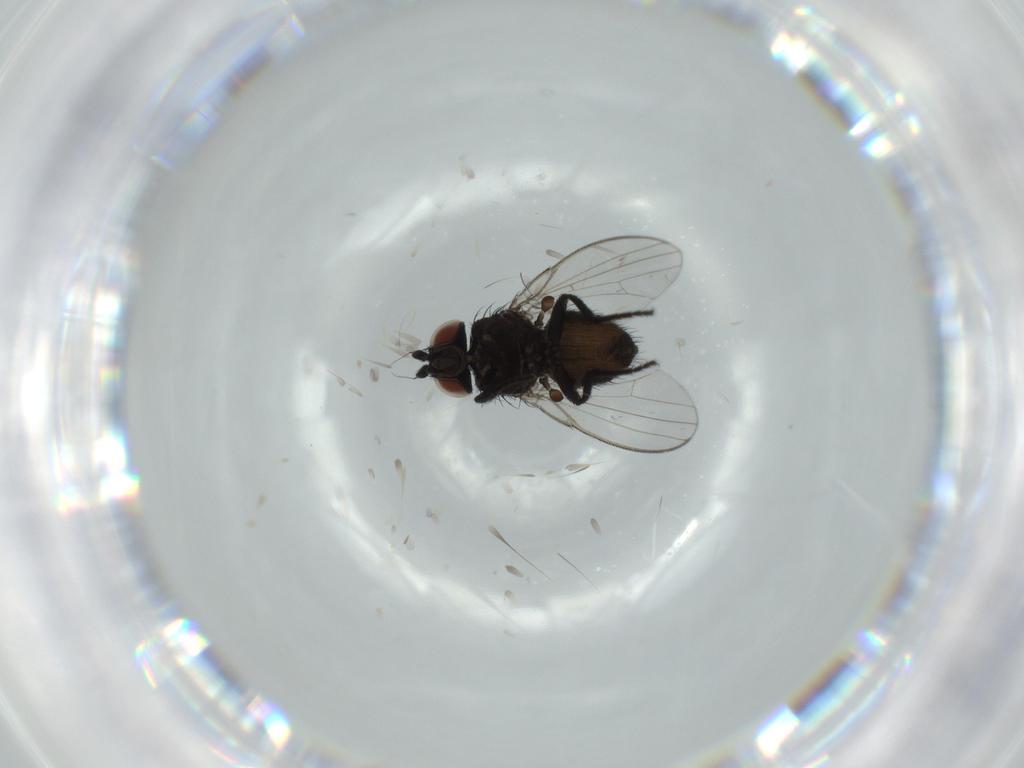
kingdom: Animalia
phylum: Arthropoda
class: Insecta
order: Diptera
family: Milichiidae
